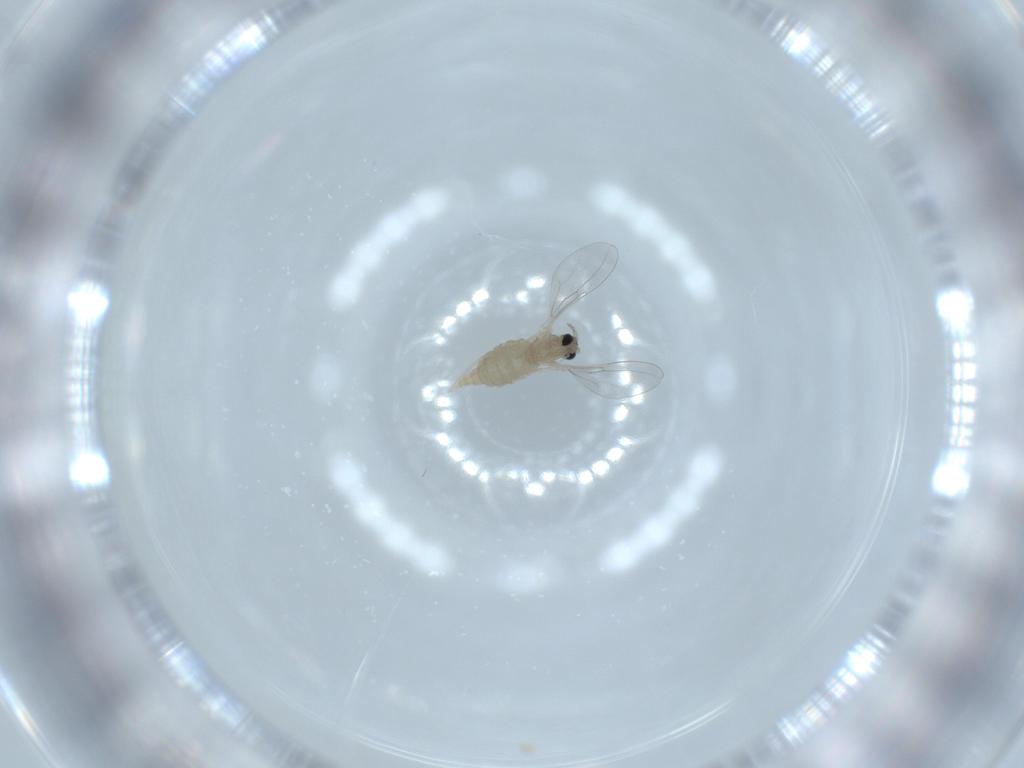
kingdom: Animalia
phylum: Arthropoda
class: Insecta
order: Diptera
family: Cecidomyiidae
